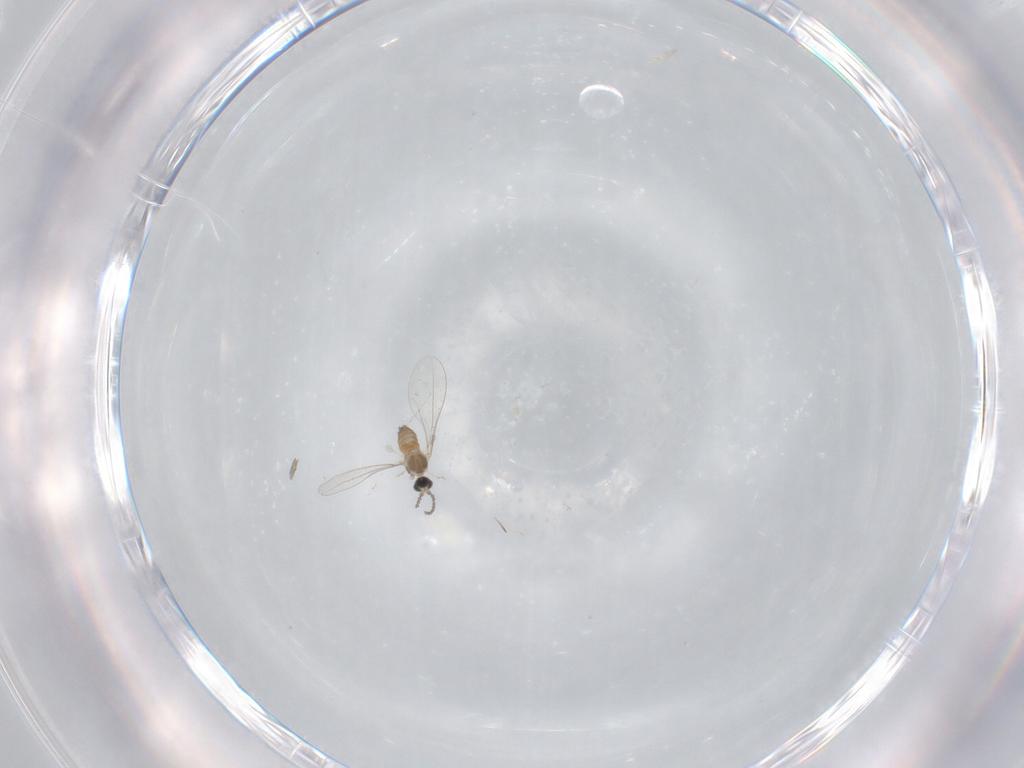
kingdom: Animalia
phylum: Arthropoda
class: Insecta
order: Diptera
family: Cecidomyiidae
